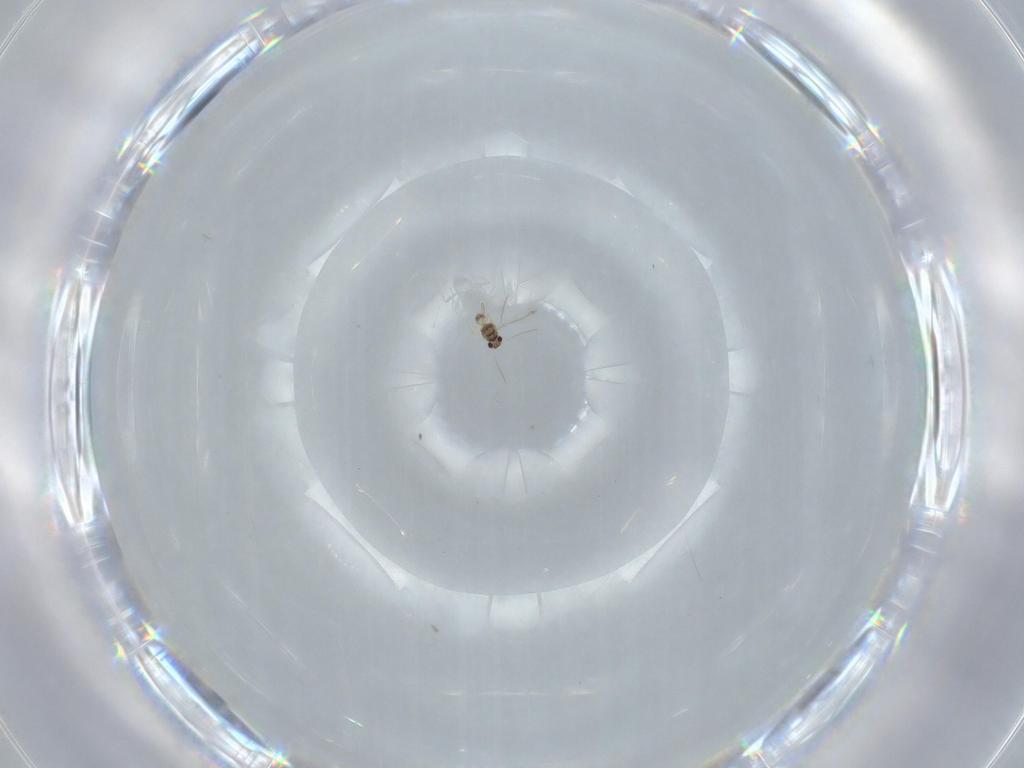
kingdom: Animalia
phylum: Arthropoda
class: Insecta
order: Hymenoptera
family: Mymaridae
